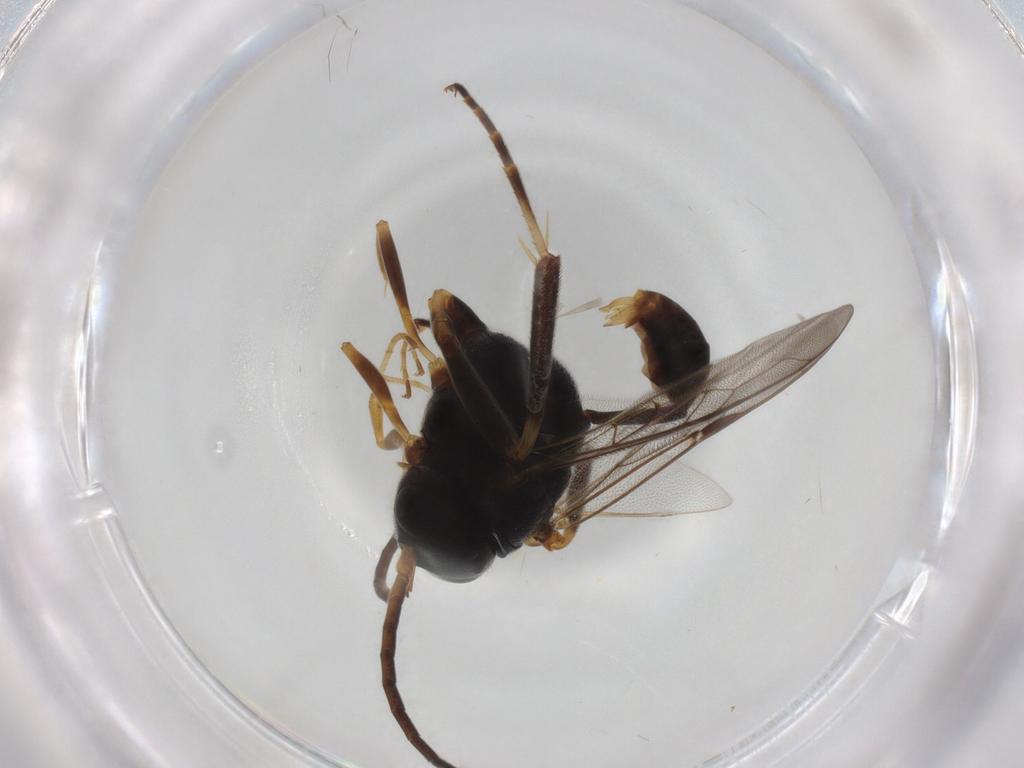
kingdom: Animalia
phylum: Arthropoda
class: Insecta
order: Hymenoptera
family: Evaniidae
